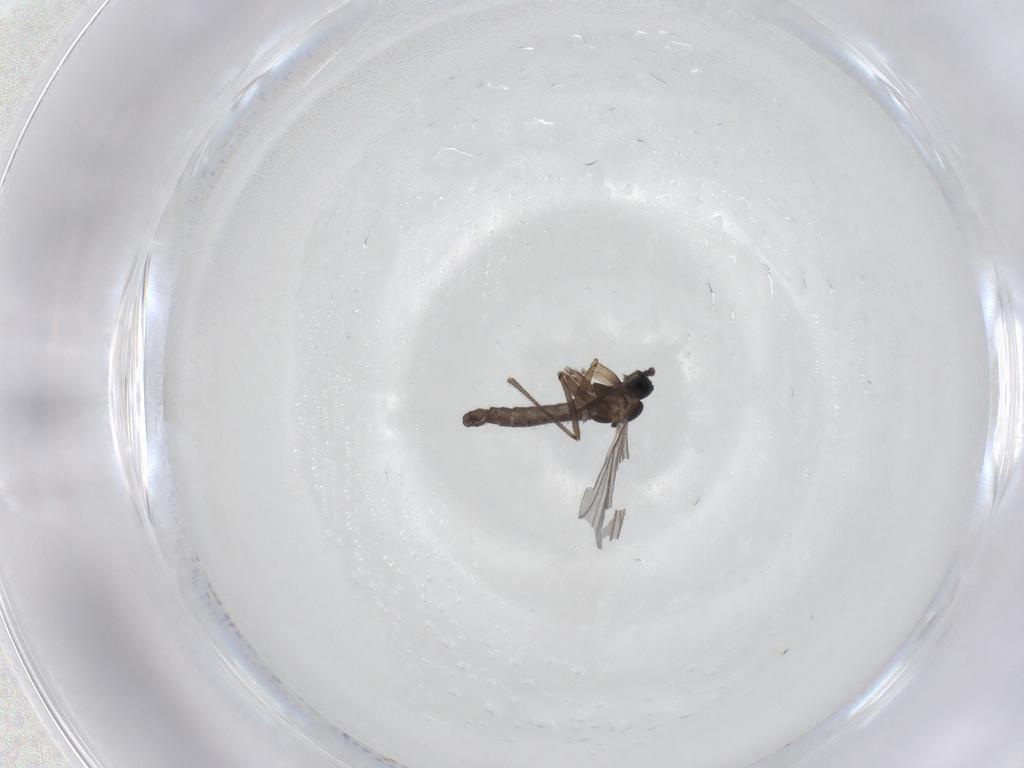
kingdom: Animalia
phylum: Arthropoda
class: Insecta
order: Diptera
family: Sciaridae
